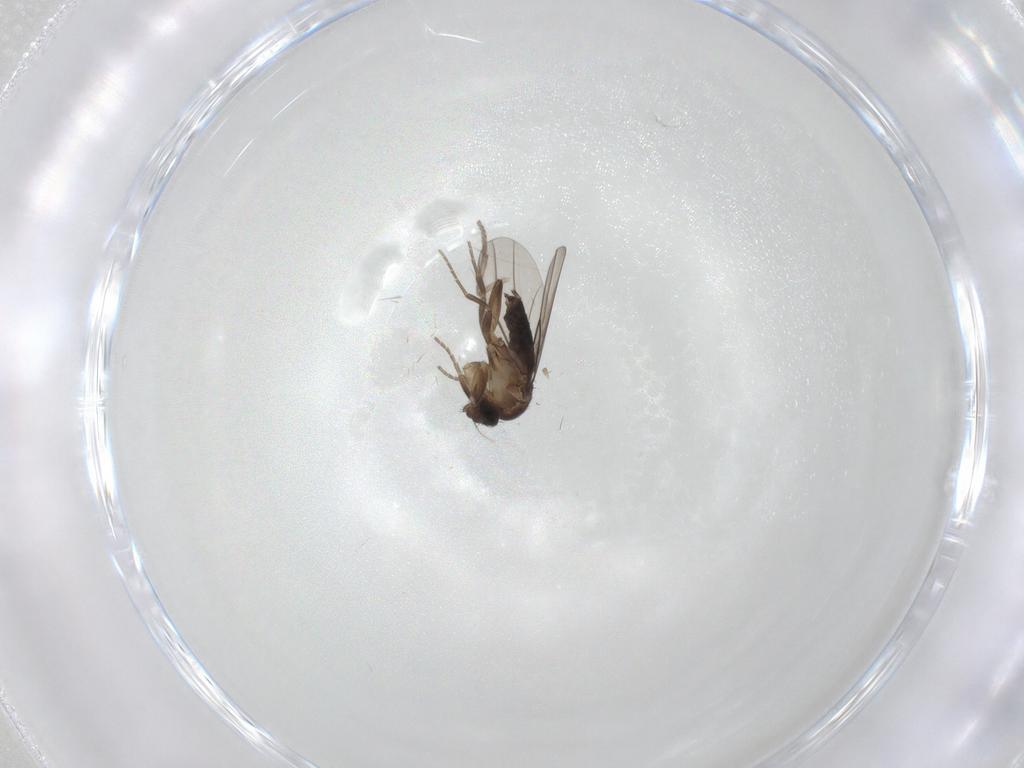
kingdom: Animalia
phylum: Arthropoda
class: Insecta
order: Diptera
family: Psychodidae
